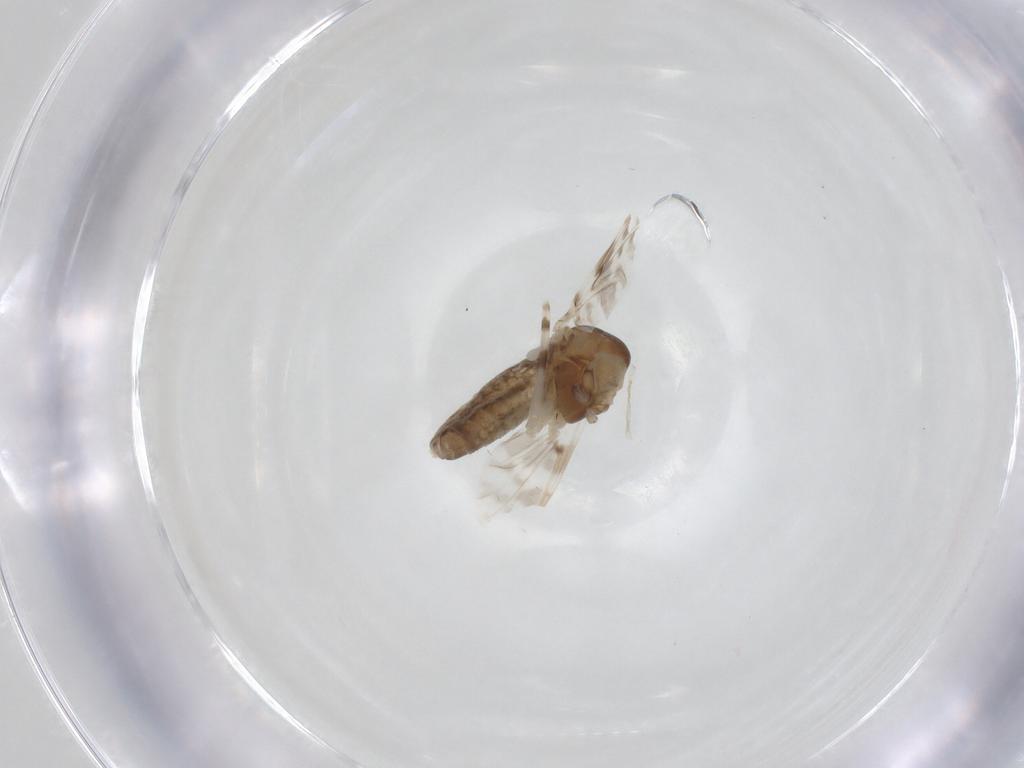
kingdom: Animalia
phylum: Arthropoda
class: Insecta
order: Diptera
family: Chironomidae
